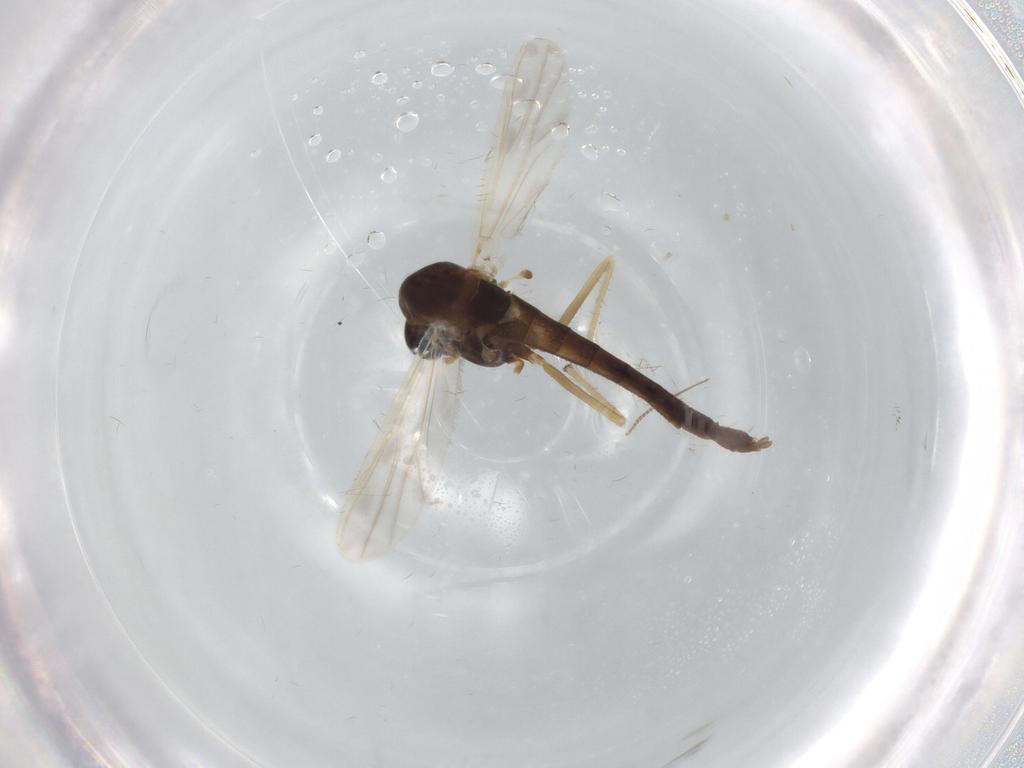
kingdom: Animalia
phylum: Arthropoda
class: Insecta
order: Diptera
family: Chironomidae
